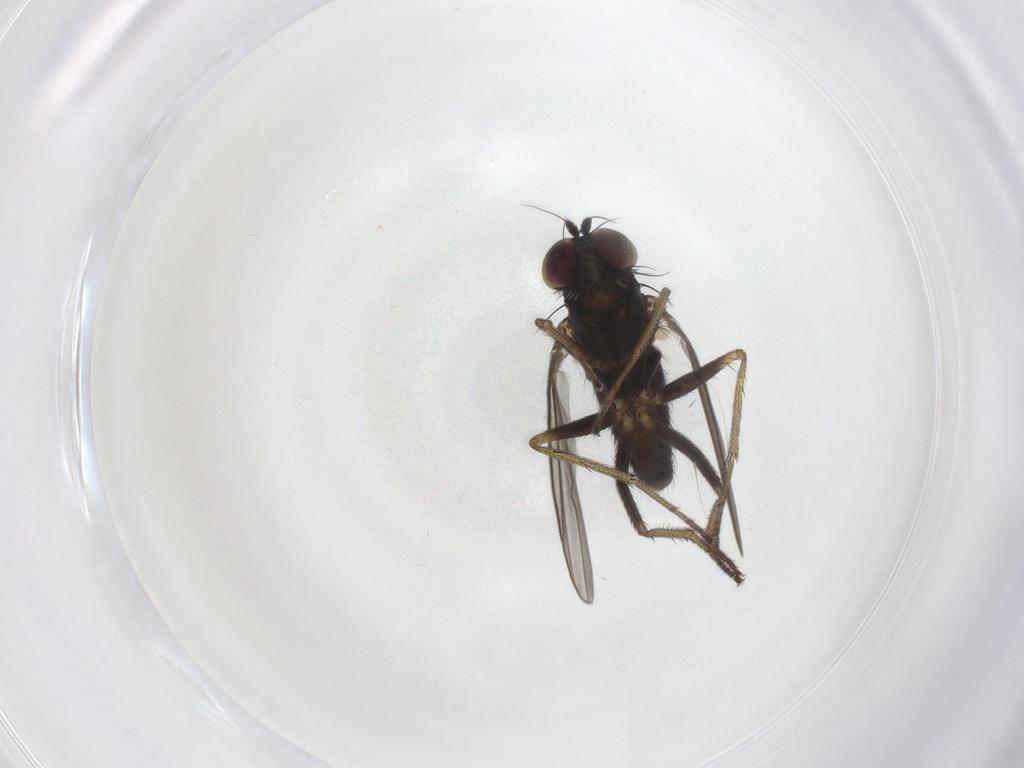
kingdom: Animalia
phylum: Arthropoda
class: Insecta
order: Diptera
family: Dolichopodidae
